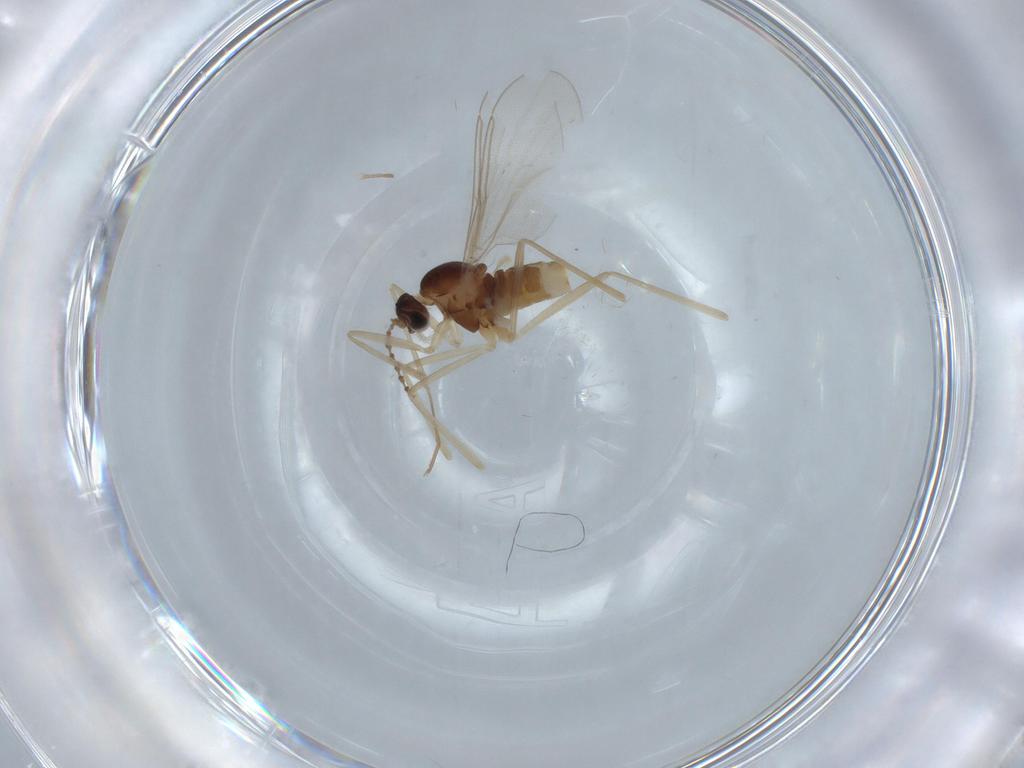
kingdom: Animalia
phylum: Arthropoda
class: Insecta
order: Diptera
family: Cecidomyiidae
